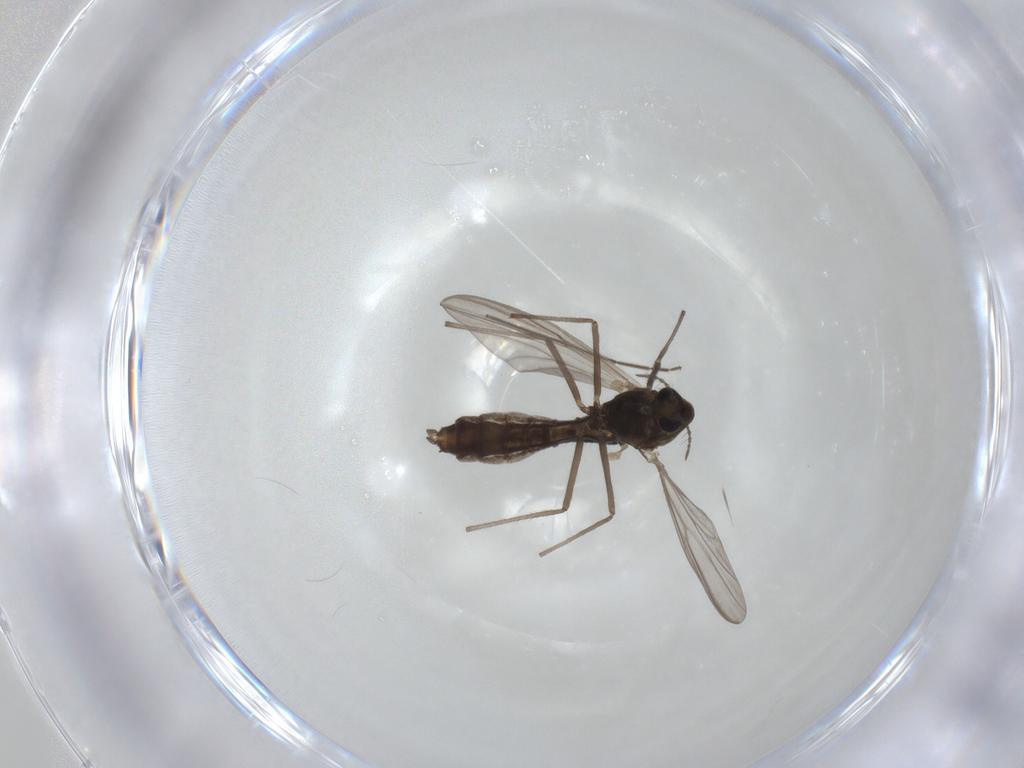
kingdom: Animalia
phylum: Arthropoda
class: Insecta
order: Diptera
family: Chironomidae
